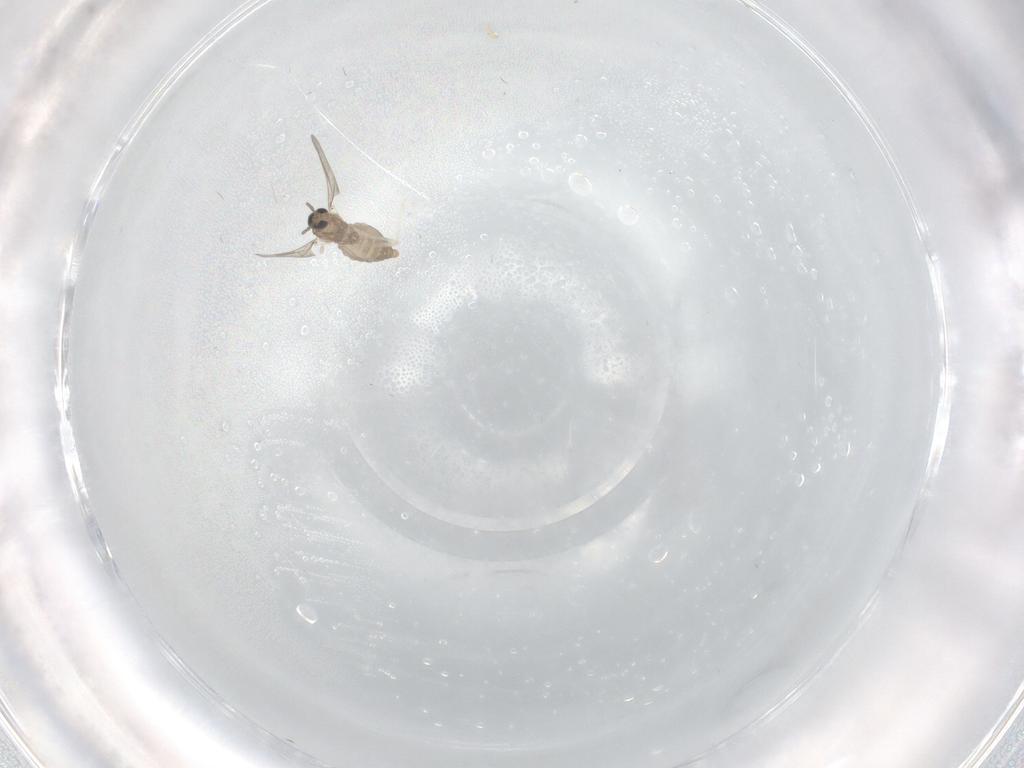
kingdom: Animalia
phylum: Arthropoda
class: Insecta
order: Diptera
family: Cecidomyiidae
